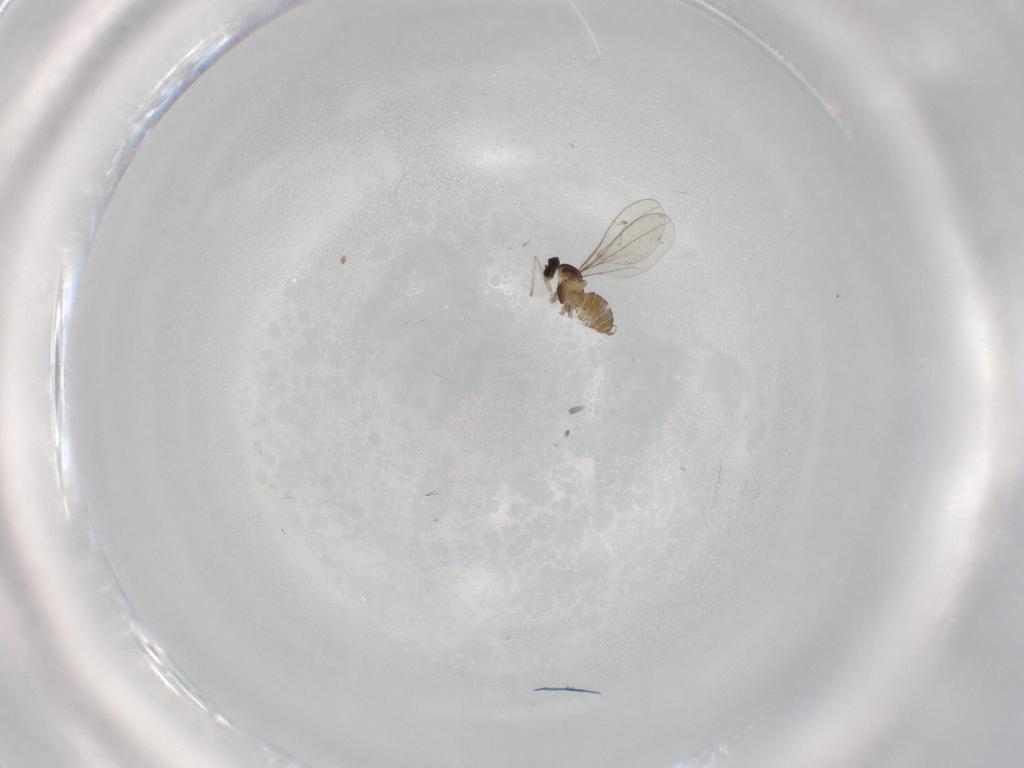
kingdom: Animalia
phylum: Arthropoda
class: Insecta
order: Diptera
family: Cecidomyiidae
